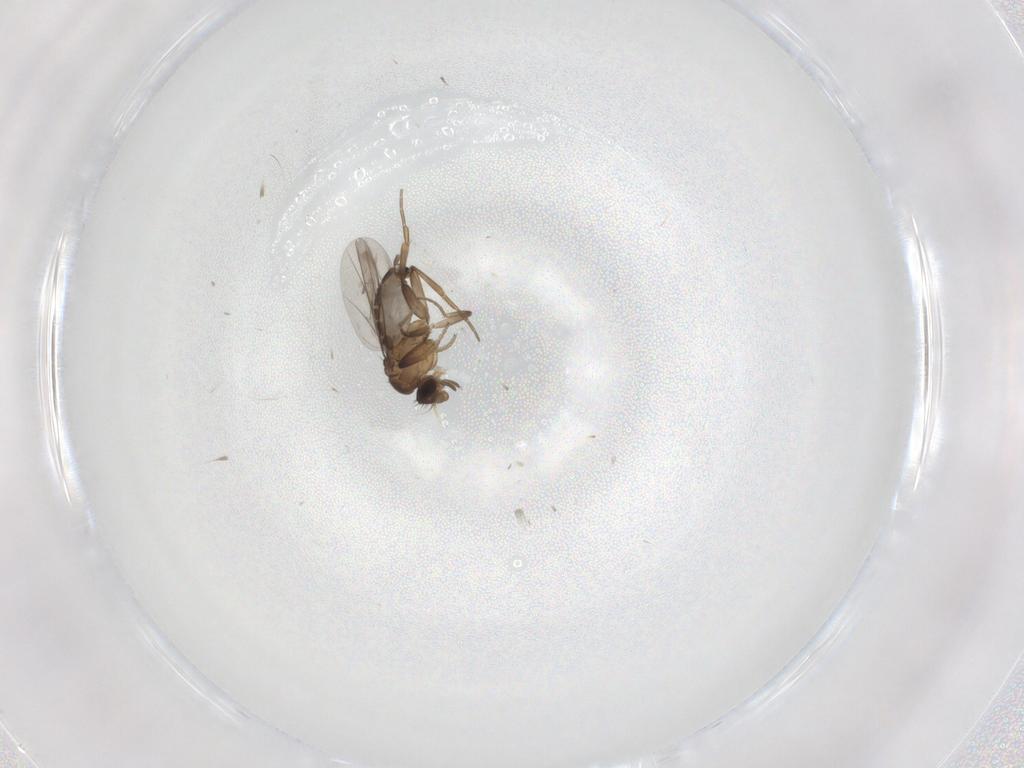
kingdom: Animalia
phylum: Arthropoda
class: Insecta
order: Diptera
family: Phoridae
